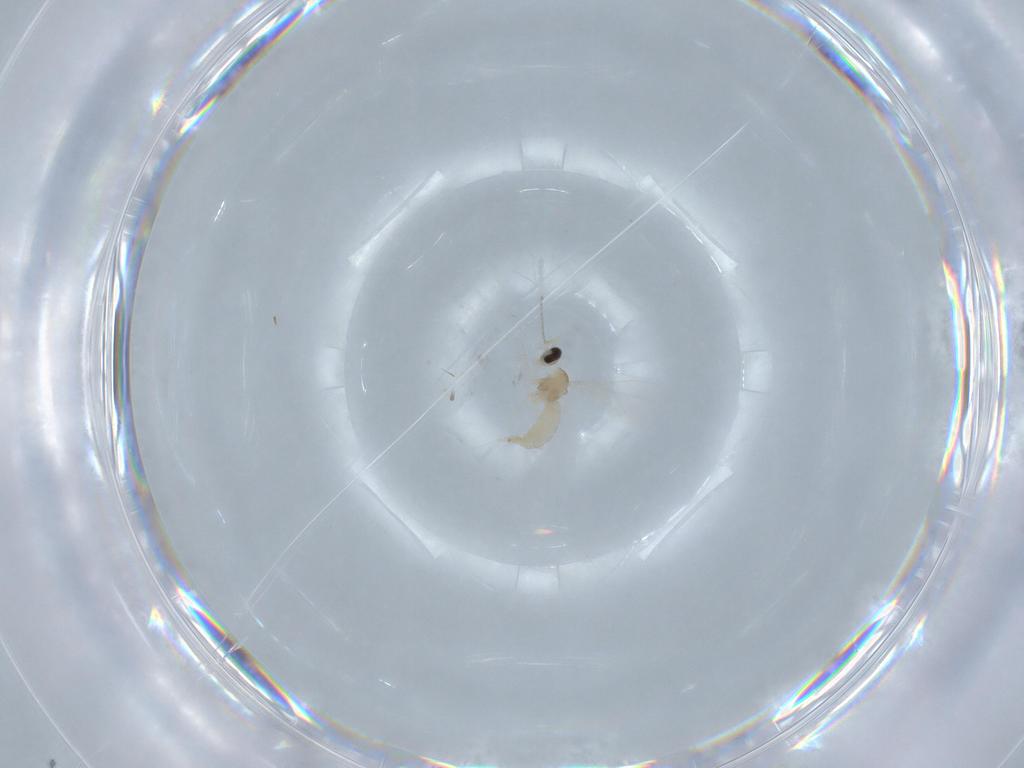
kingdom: Animalia
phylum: Arthropoda
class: Insecta
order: Diptera
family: Cecidomyiidae
